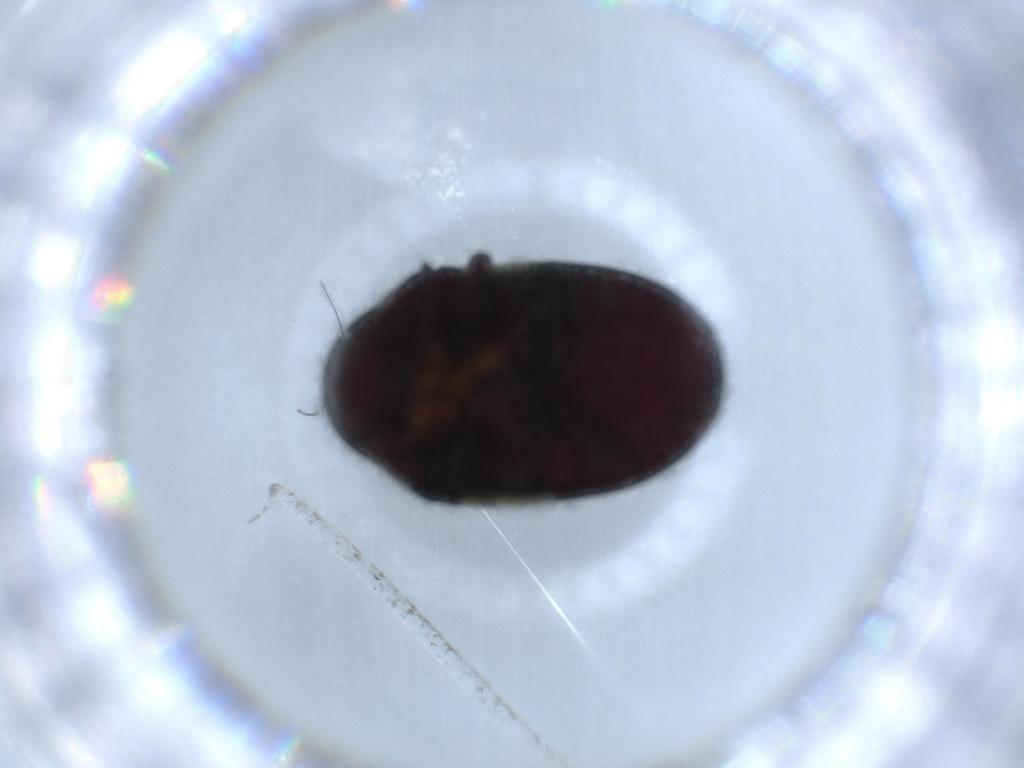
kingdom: Animalia
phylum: Arthropoda
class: Insecta
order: Coleoptera
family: Ptinidae
